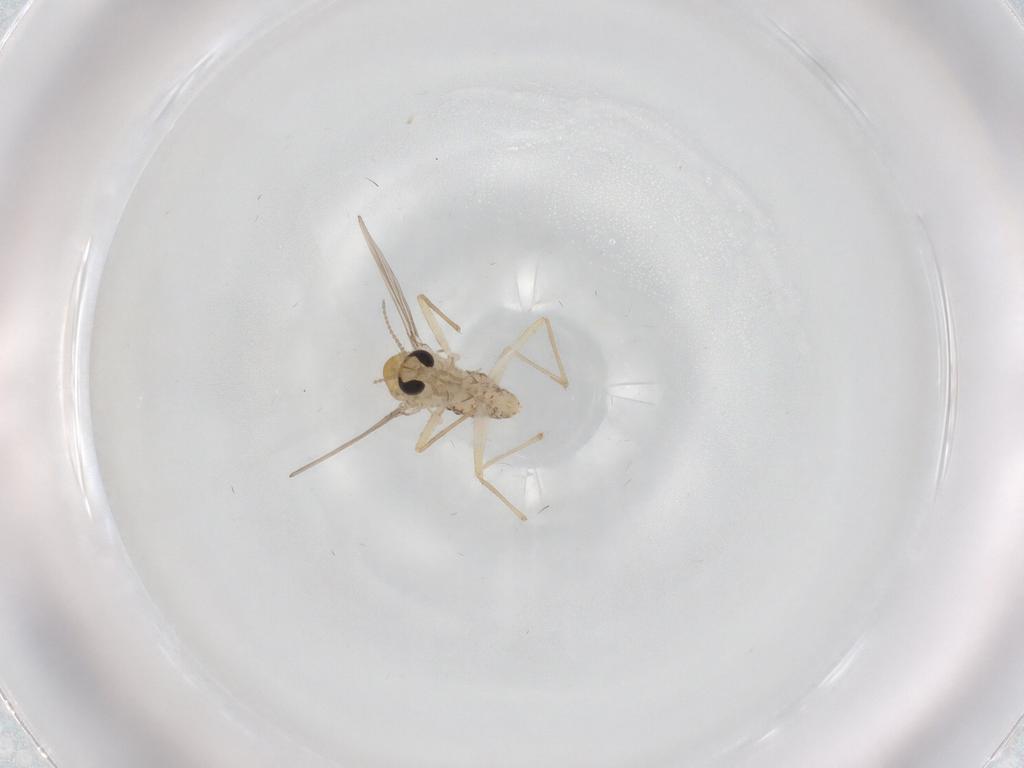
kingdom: Animalia
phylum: Arthropoda
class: Insecta
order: Diptera
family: Chironomidae
